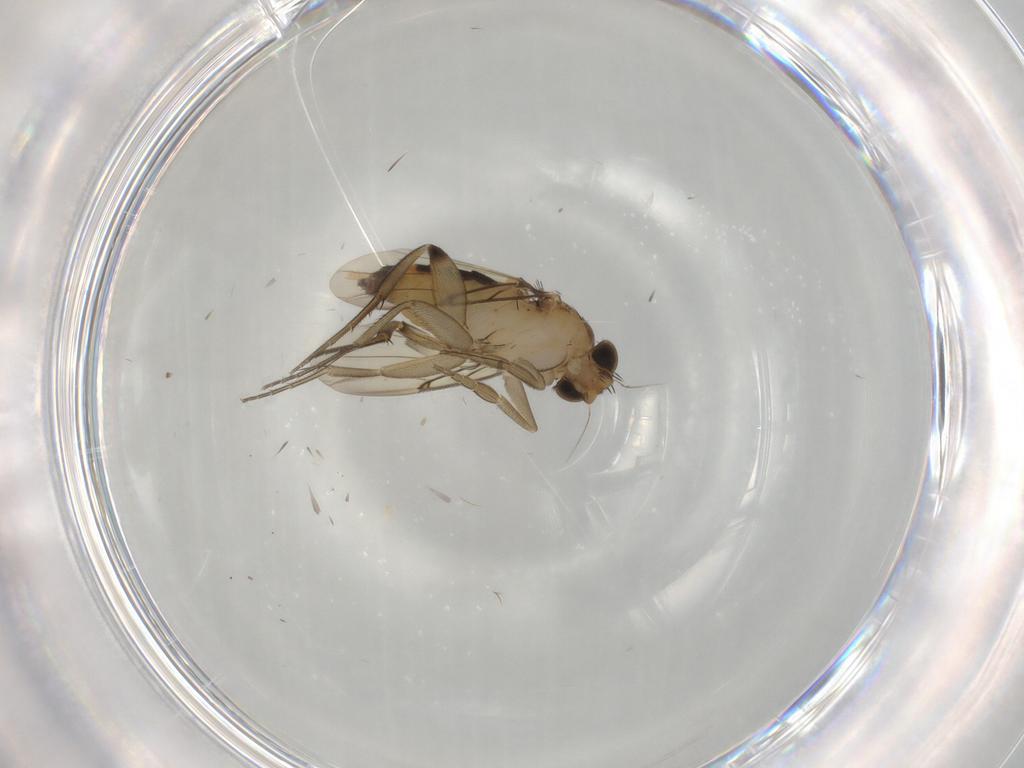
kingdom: Animalia
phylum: Arthropoda
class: Insecta
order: Diptera
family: Phoridae
